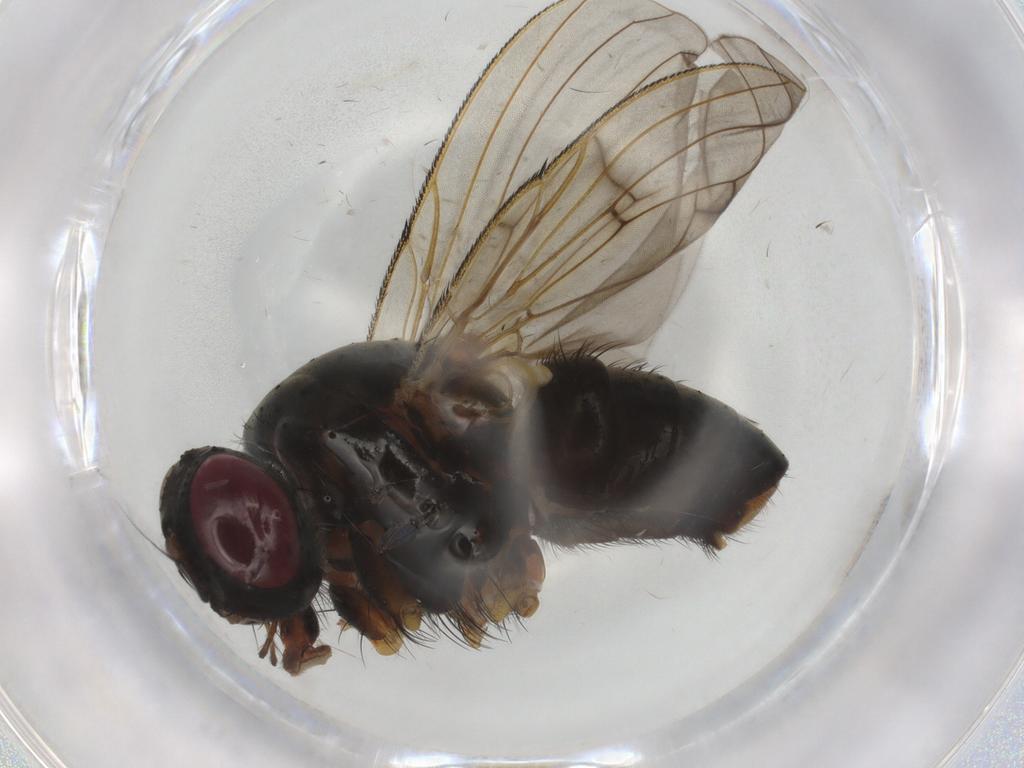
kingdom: Animalia
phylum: Arthropoda
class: Insecta
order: Diptera
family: Muscidae
